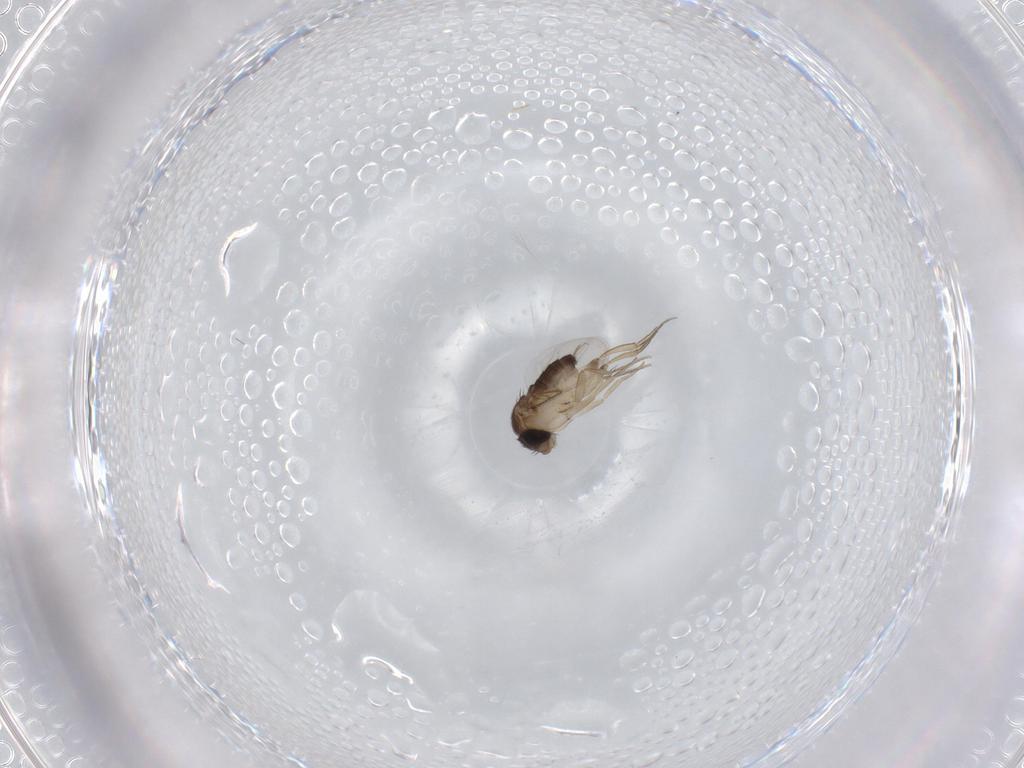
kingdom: Animalia
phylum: Arthropoda
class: Insecta
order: Diptera
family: Phoridae
